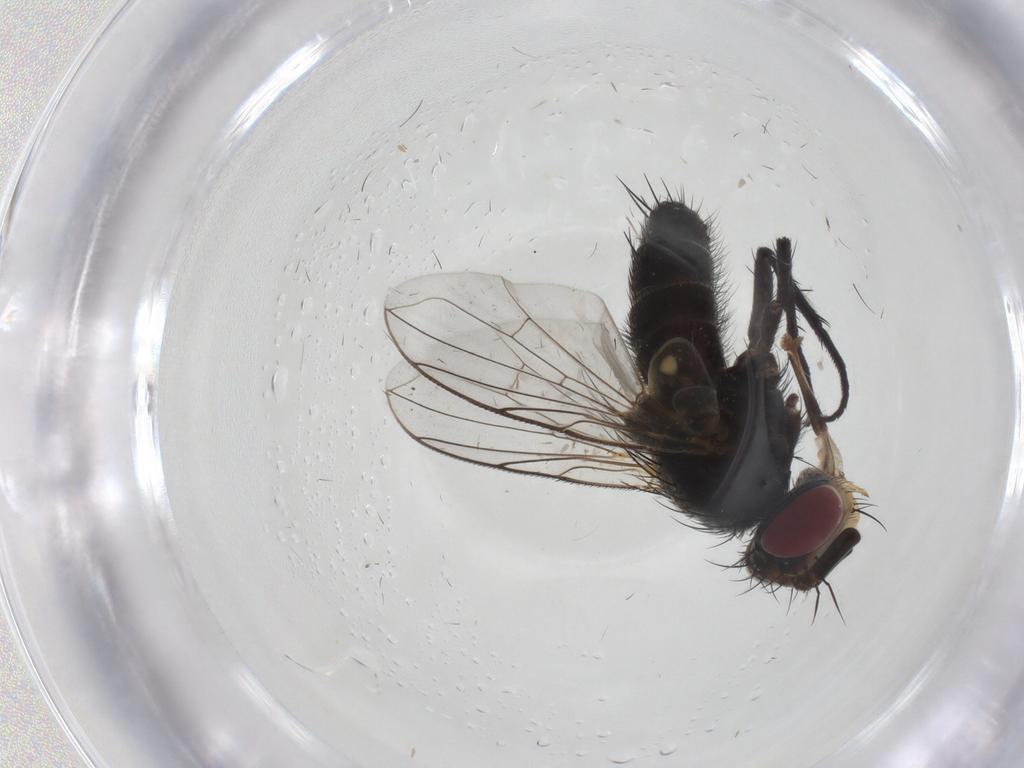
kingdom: Animalia
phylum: Arthropoda
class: Insecta
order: Diptera
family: Tachinidae
